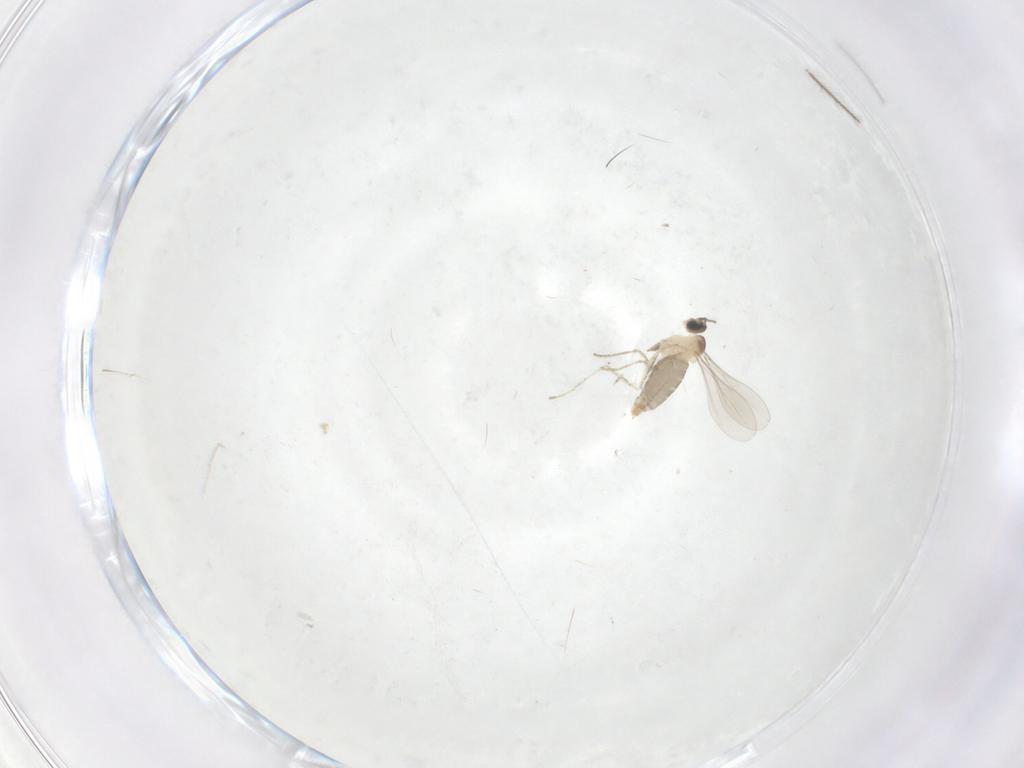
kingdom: Animalia
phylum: Arthropoda
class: Insecta
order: Diptera
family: Cecidomyiidae
